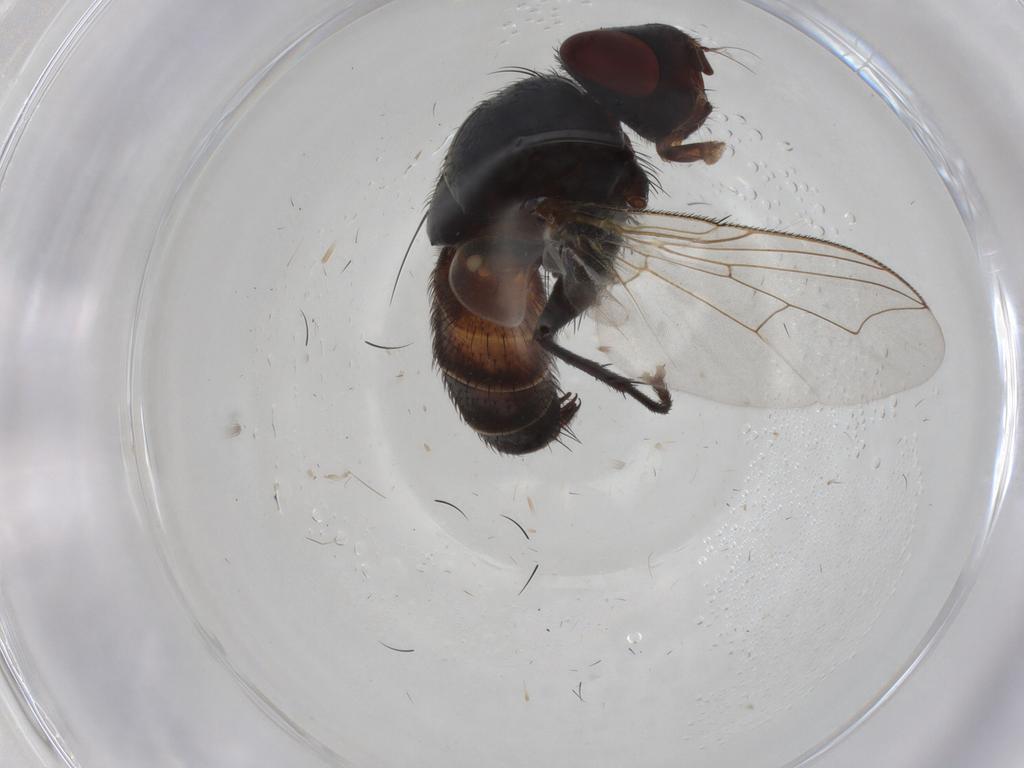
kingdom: Animalia
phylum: Arthropoda
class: Insecta
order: Diptera
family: Sarcophagidae
